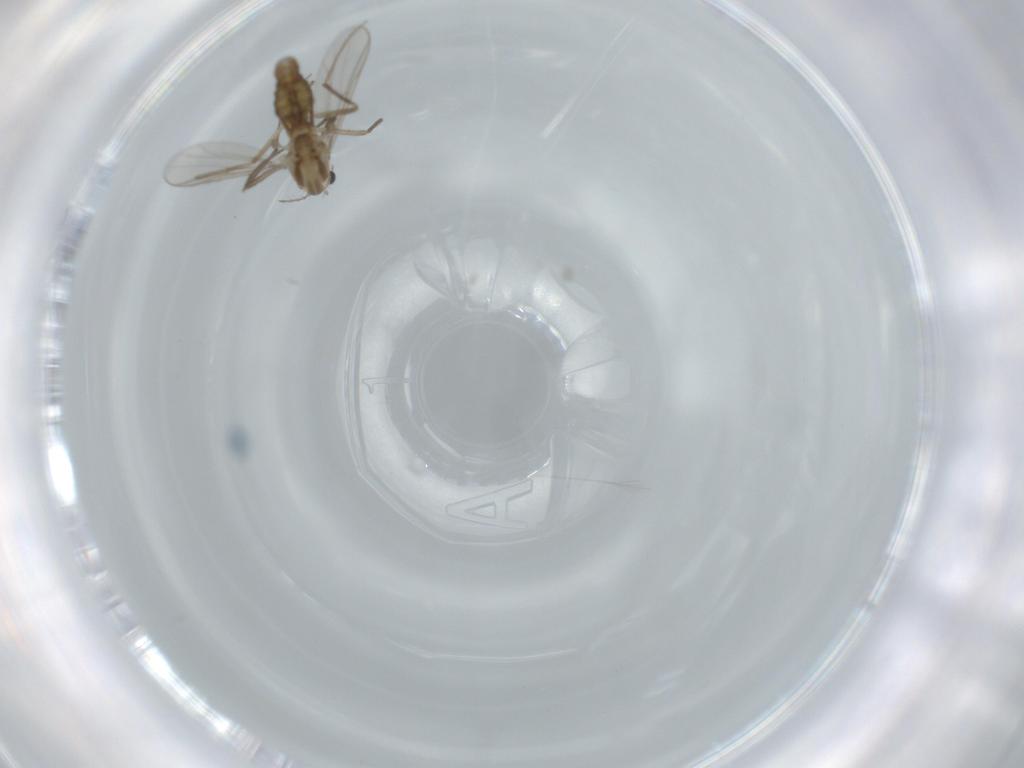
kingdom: Animalia
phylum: Arthropoda
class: Insecta
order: Diptera
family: Chironomidae
